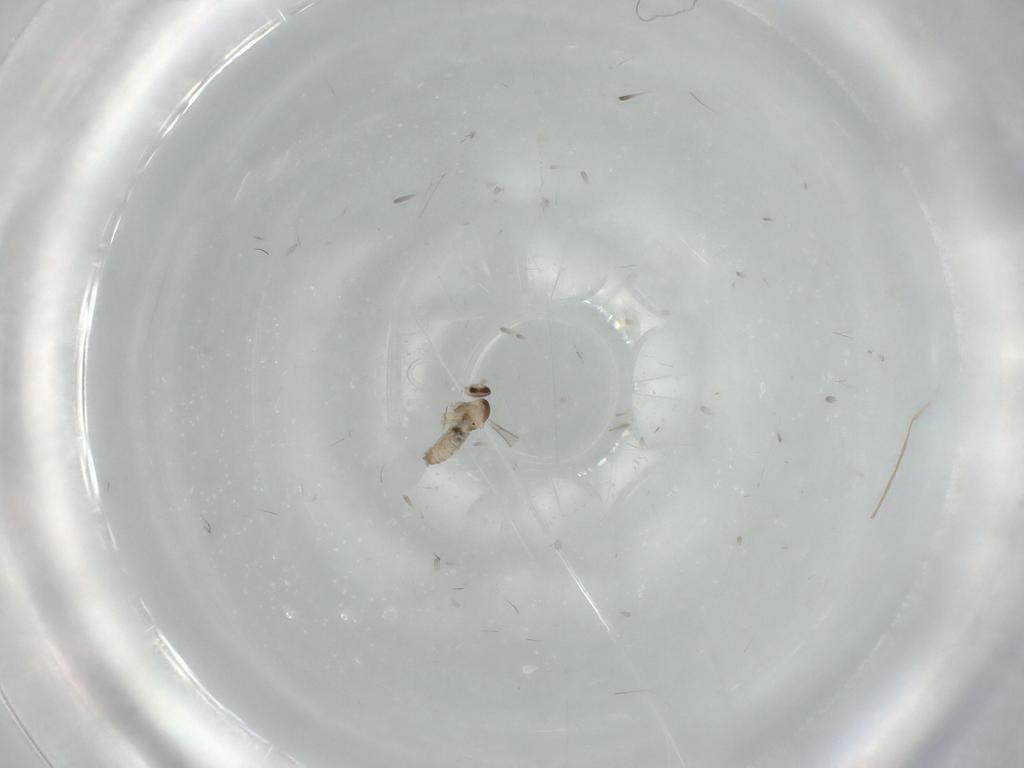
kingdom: Animalia
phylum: Arthropoda
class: Insecta
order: Diptera
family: Cecidomyiidae
